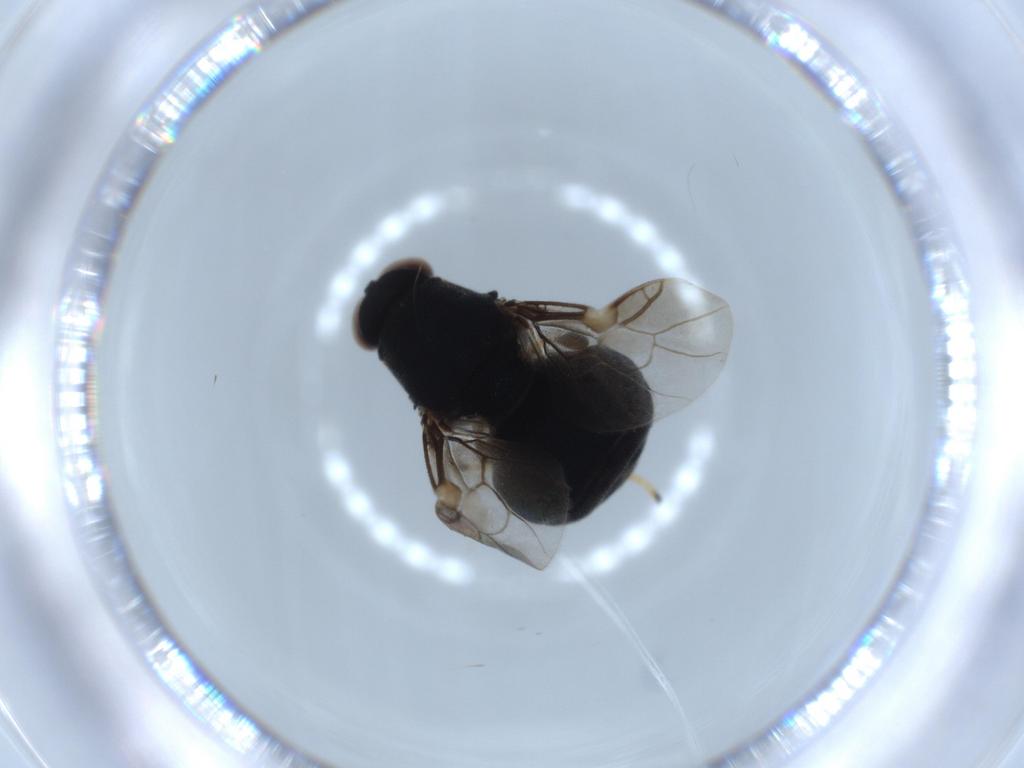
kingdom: Animalia
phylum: Arthropoda
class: Insecta
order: Diptera
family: Stratiomyidae
